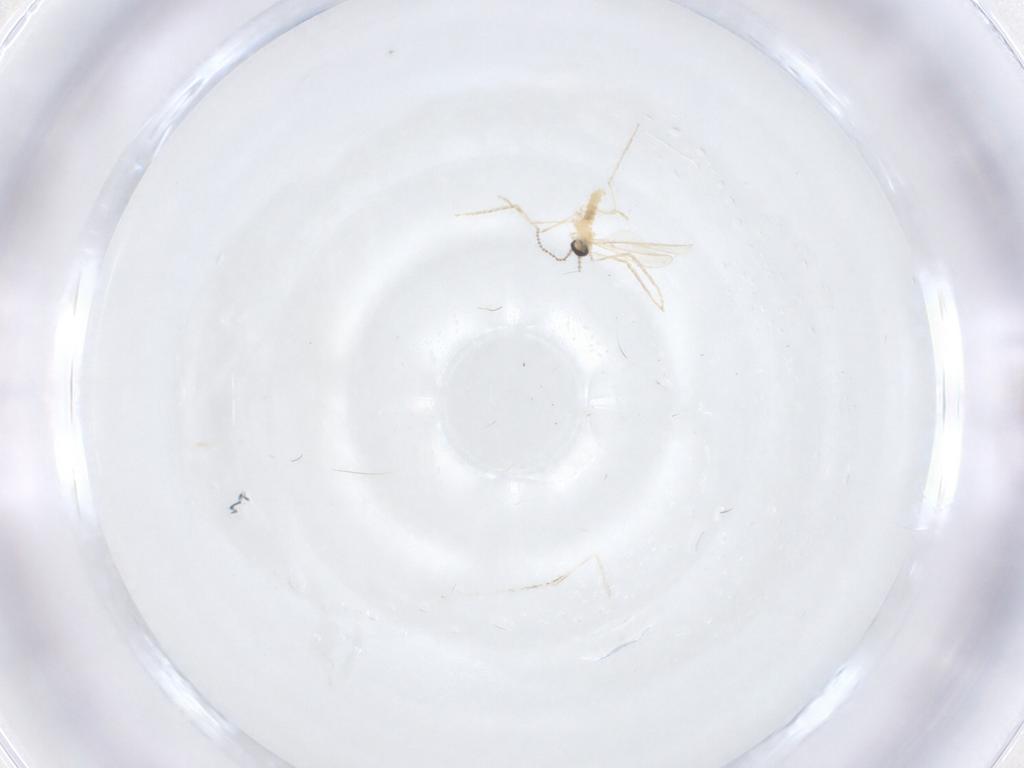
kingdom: Animalia
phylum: Arthropoda
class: Insecta
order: Diptera
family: Cecidomyiidae
